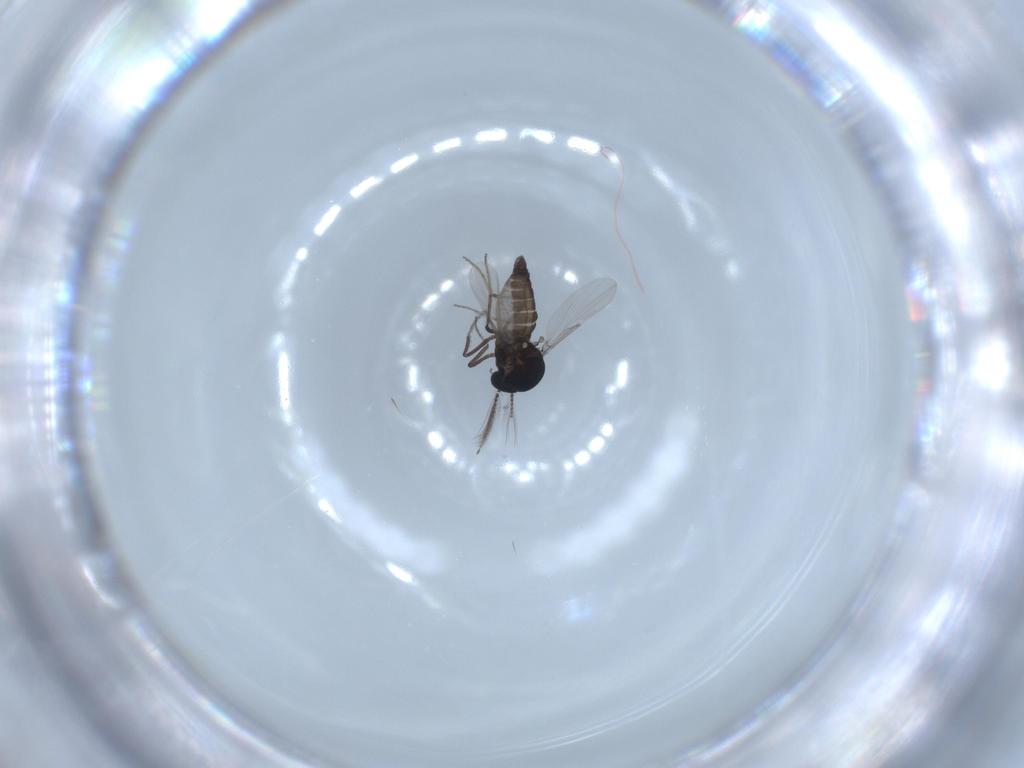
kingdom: Animalia
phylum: Arthropoda
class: Insecta
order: Diptera
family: Ceratopogonidae
